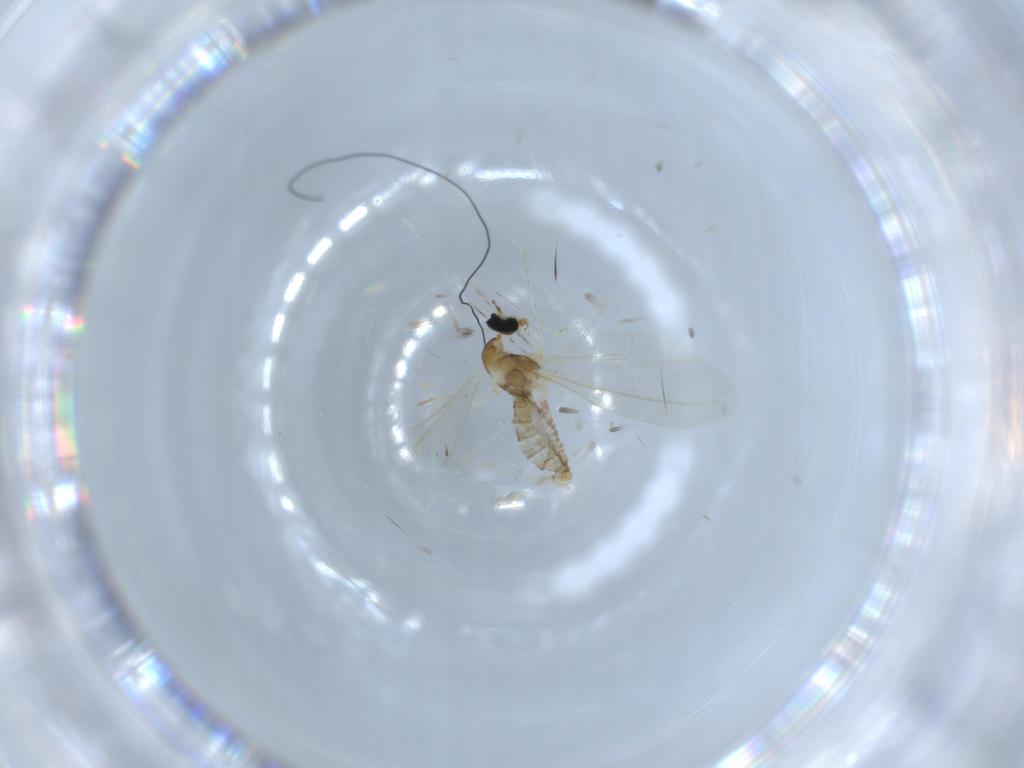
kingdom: Animalia
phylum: Arthropoda
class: Insecta
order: Diptera
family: Cecidomyiidae
